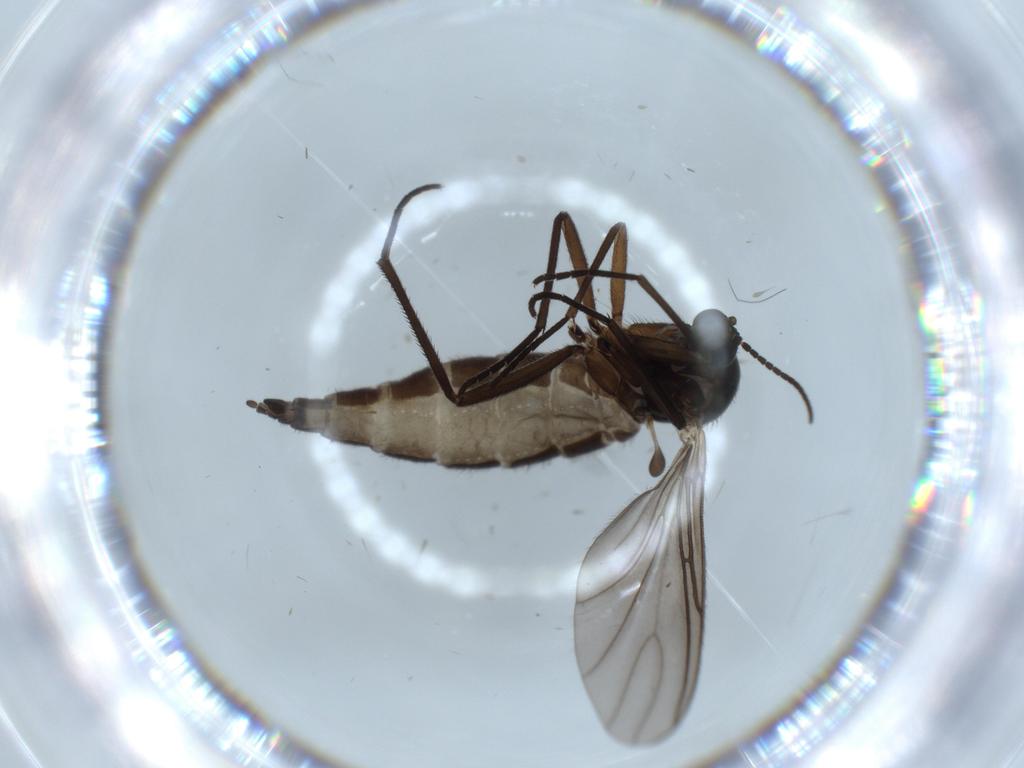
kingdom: Animalia
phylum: Arthropoda
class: Insecta
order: Diptera
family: Sciaridae
